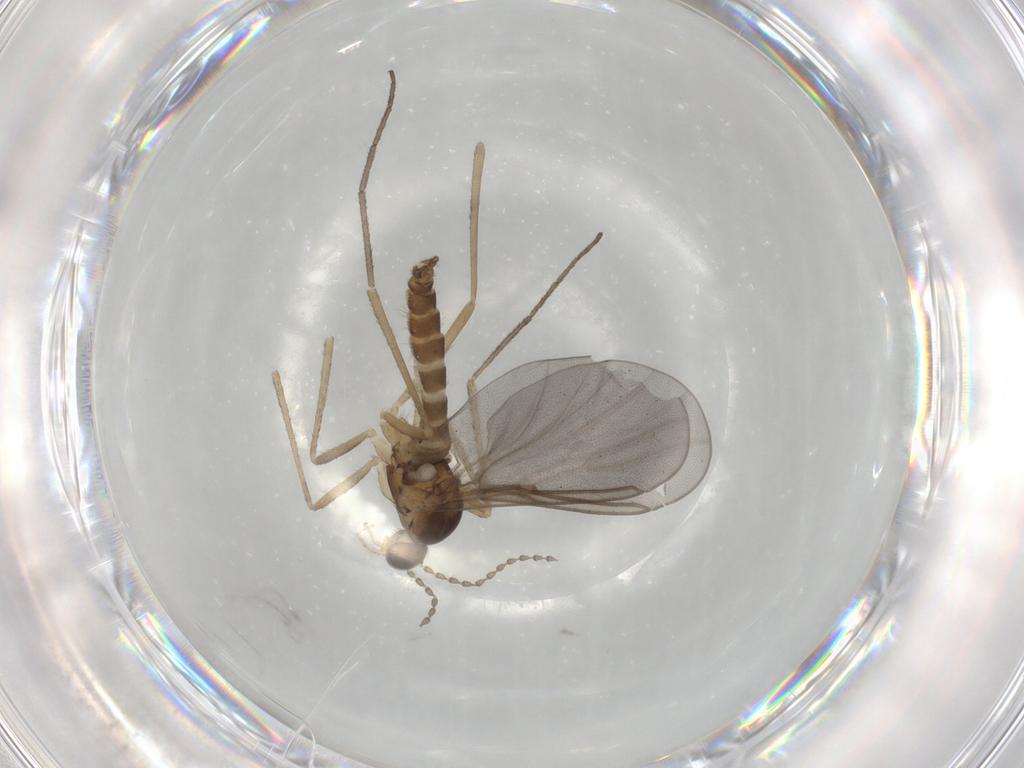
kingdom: Animalia
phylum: Arthropoda
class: Insecta
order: Diptera
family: Cecidomyiidae
